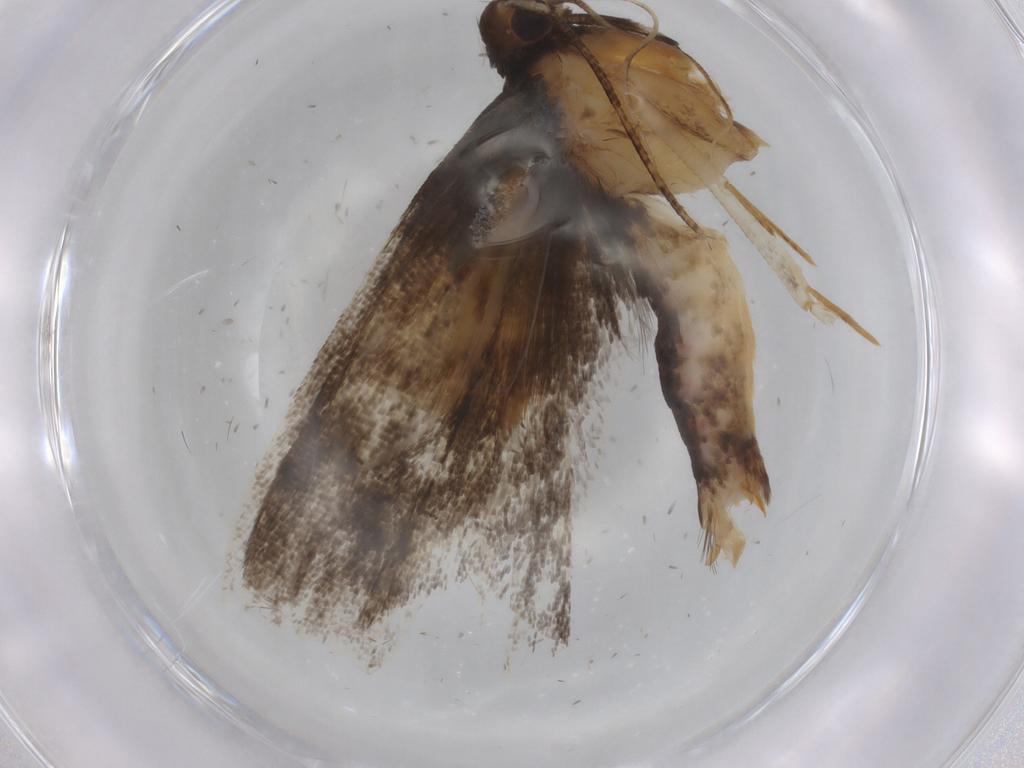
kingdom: Animalia
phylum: Arthropoda
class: Insecta
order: Lepidoptera
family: Gelechiidae
